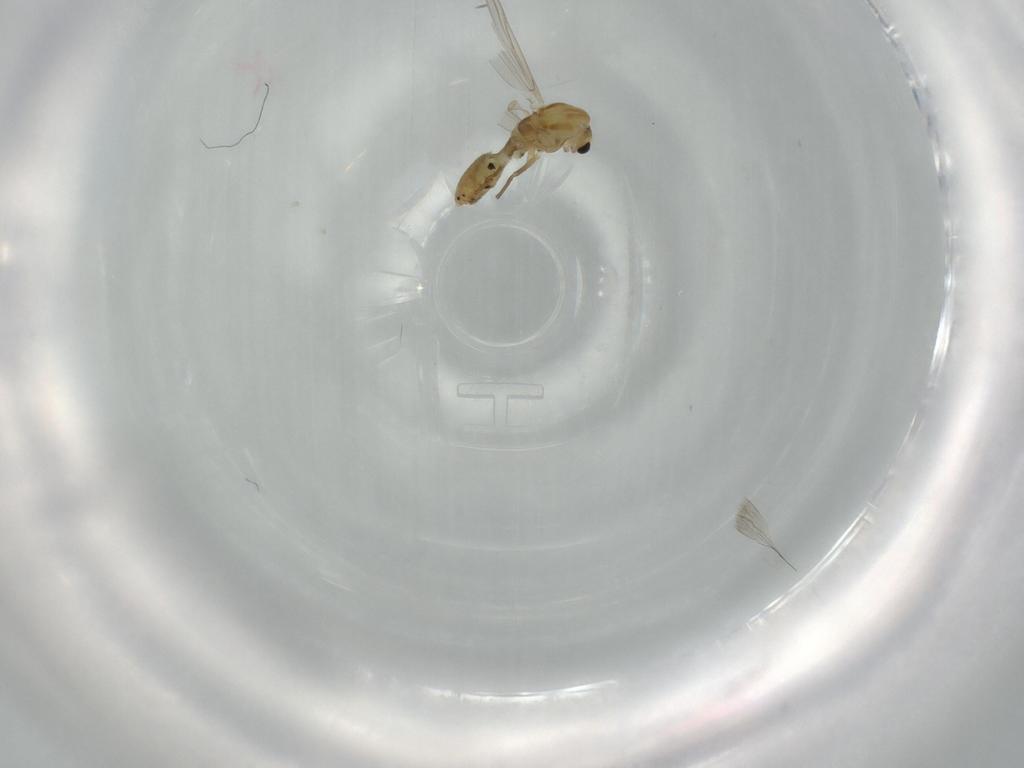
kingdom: Animalia
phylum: Arthropoda
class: Insecta
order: Diptera
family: Chironomidae
